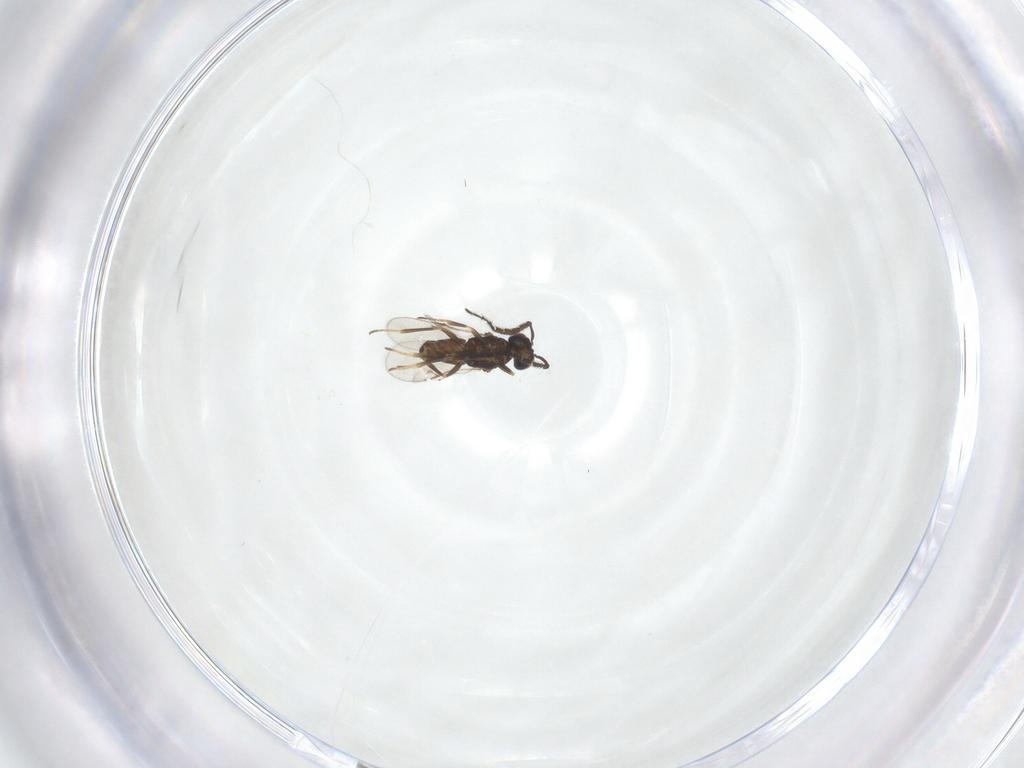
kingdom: Animalia
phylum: Arthropoda
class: Insecta
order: Hymenoptera
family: Encyrtidae
